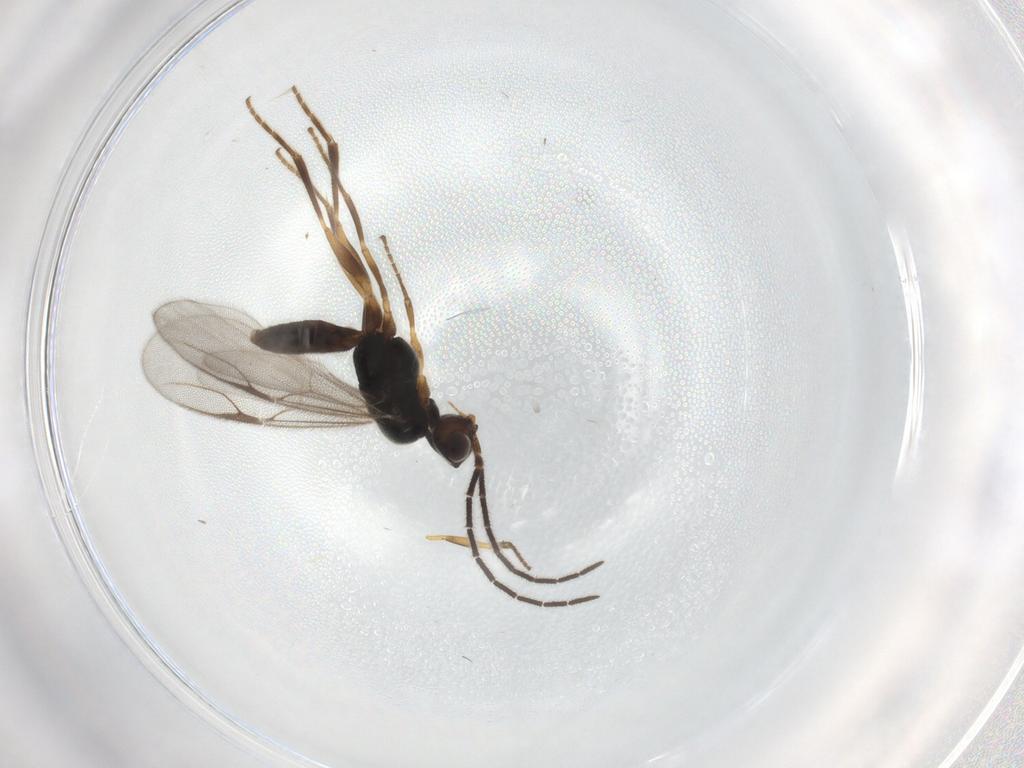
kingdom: Animalia
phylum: Arthropoda
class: Insecta
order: Hymenoptera
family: Dryinidae
